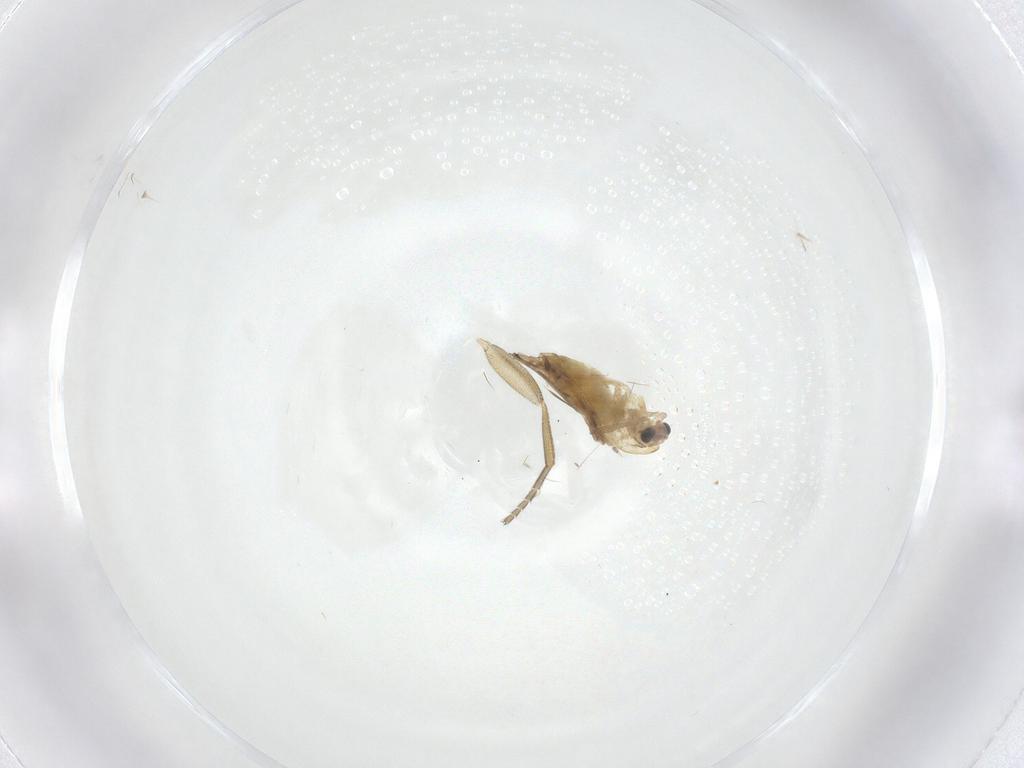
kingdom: Animalia
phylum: Arthropoda
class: Insecta
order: Diptera
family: Phoridae
